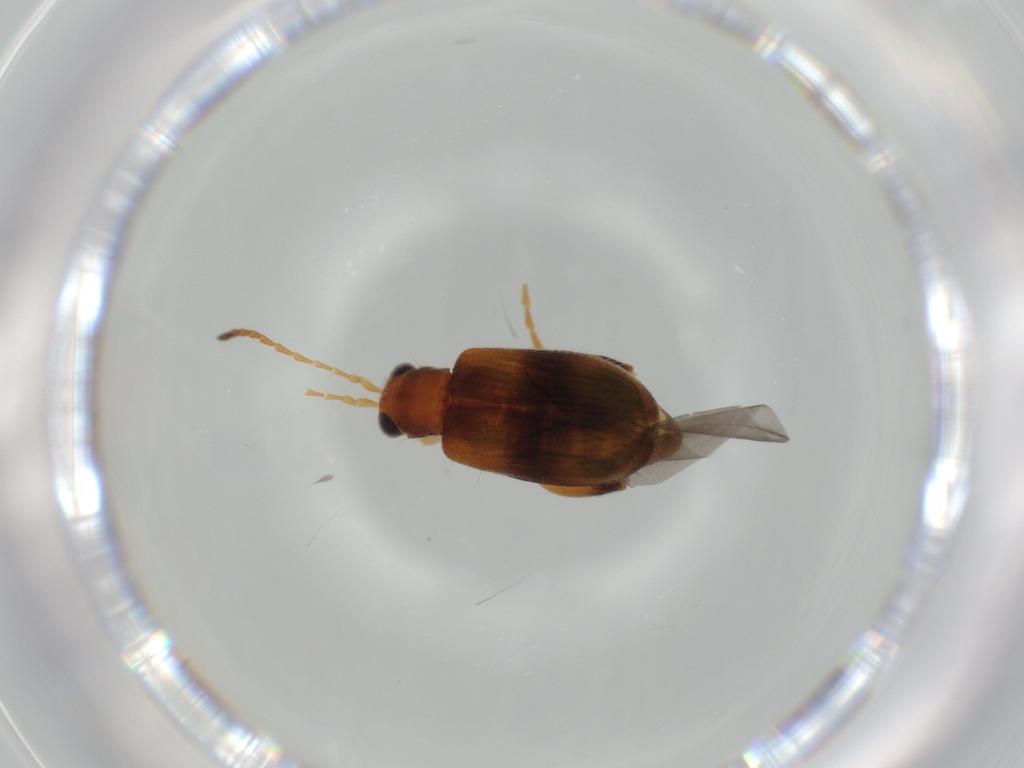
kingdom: Animalia
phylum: Arthropoda
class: Insecta
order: Coleoptera
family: Chrysomelidae
